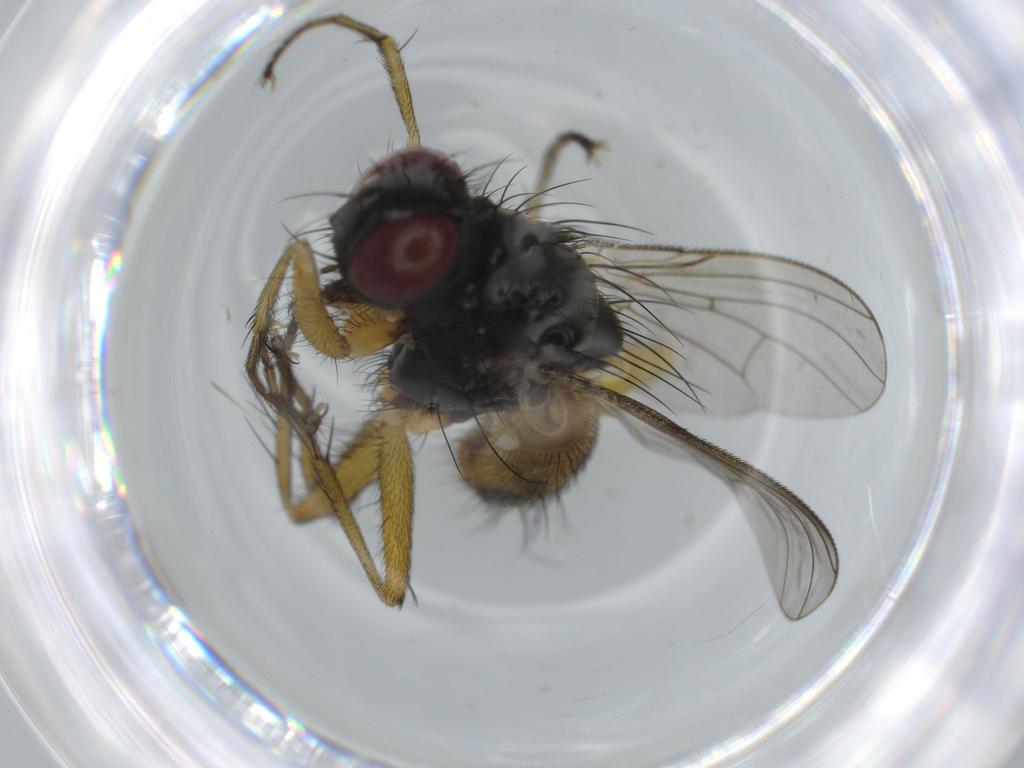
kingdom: Animalia
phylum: Arthropoda
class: Insecta
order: Diptera
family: Muscidae
